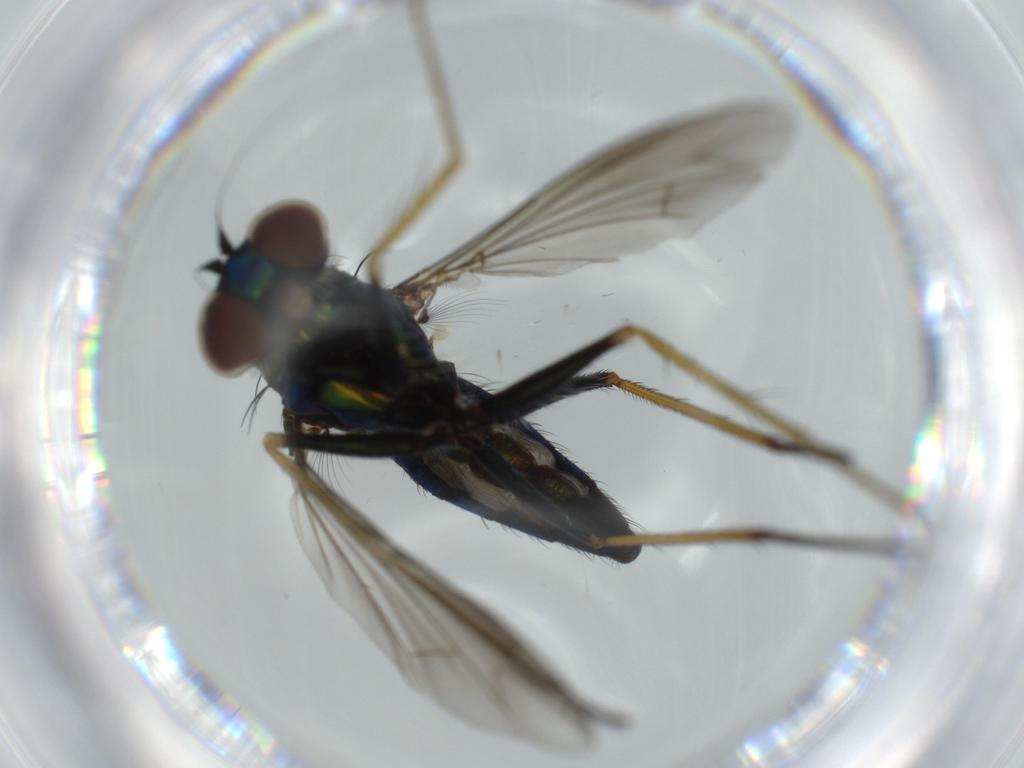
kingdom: Animalia
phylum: Arthropoda
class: Insecta
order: Diptera
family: Dolichopodidae
